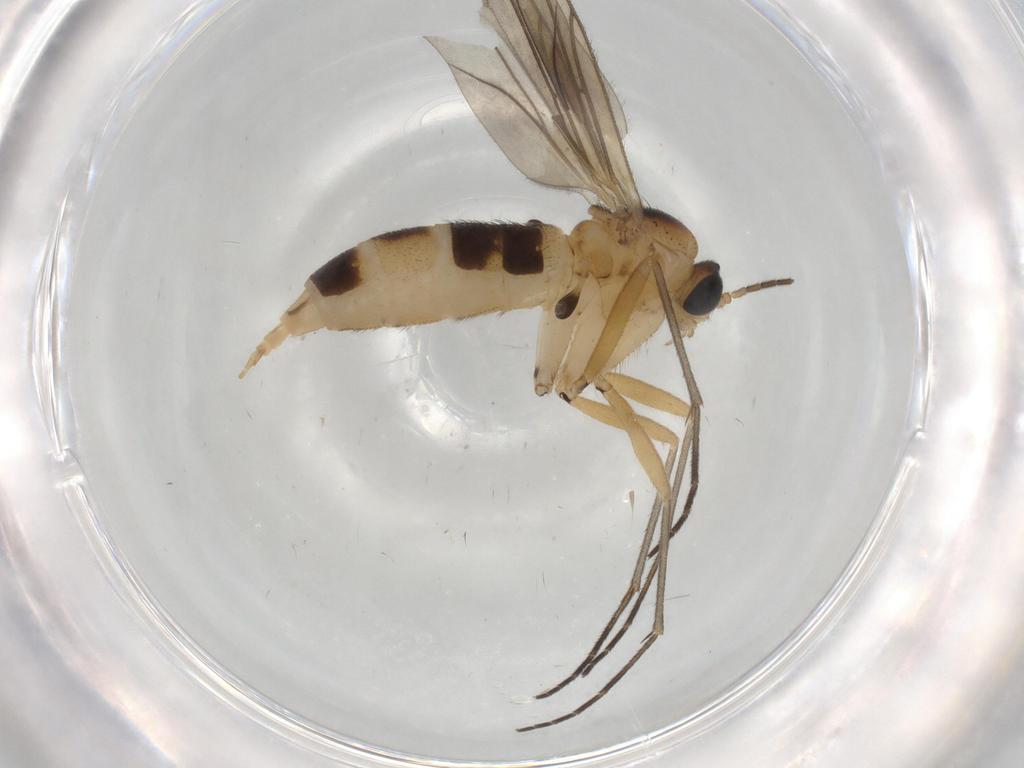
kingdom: Animalia
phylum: Arthropoda
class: Insecta
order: Diptera
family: Sciaridae
